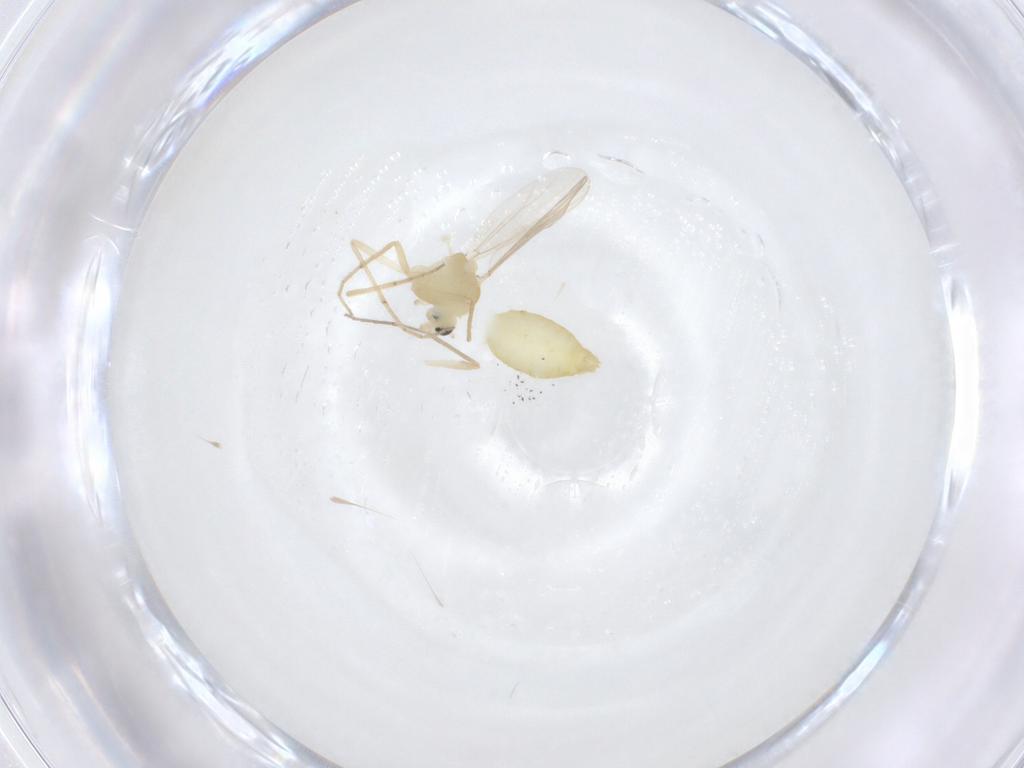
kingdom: Animalia
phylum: Arthropoda
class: Insecta
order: Diptera
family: Chironomidae
